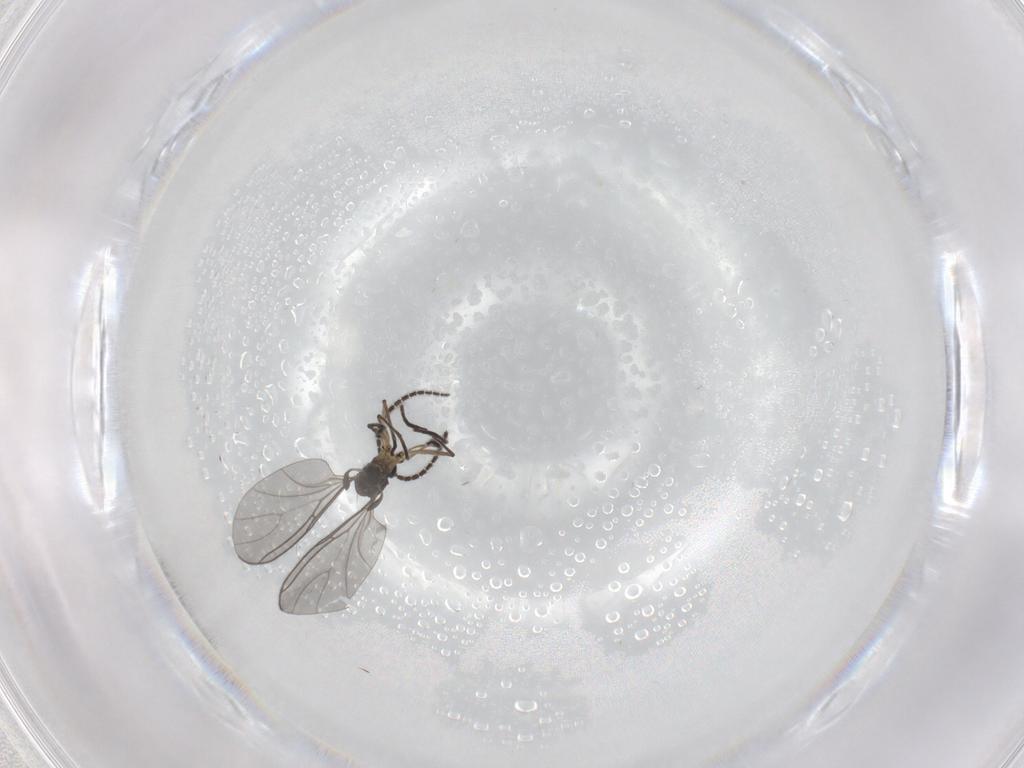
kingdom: Animalia
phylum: Arthropoda
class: Insecta
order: Diptera
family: Sciaridae
